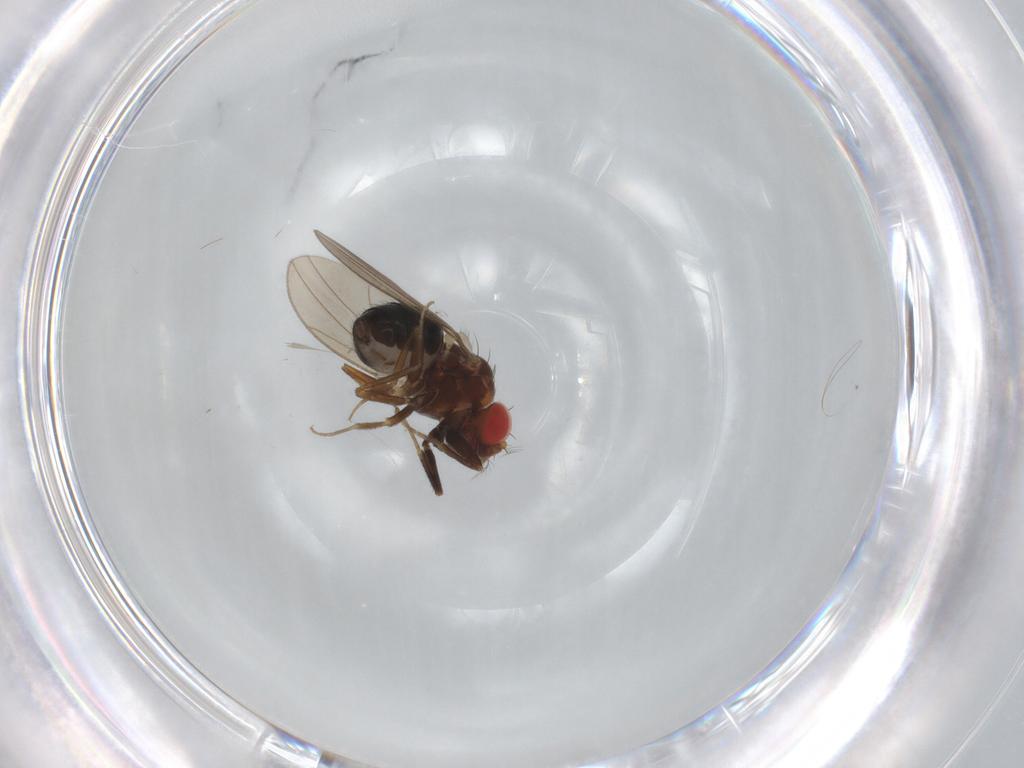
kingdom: Animalia
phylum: Arthropoda
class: Insecta
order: Diptera
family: Drosophilidae
